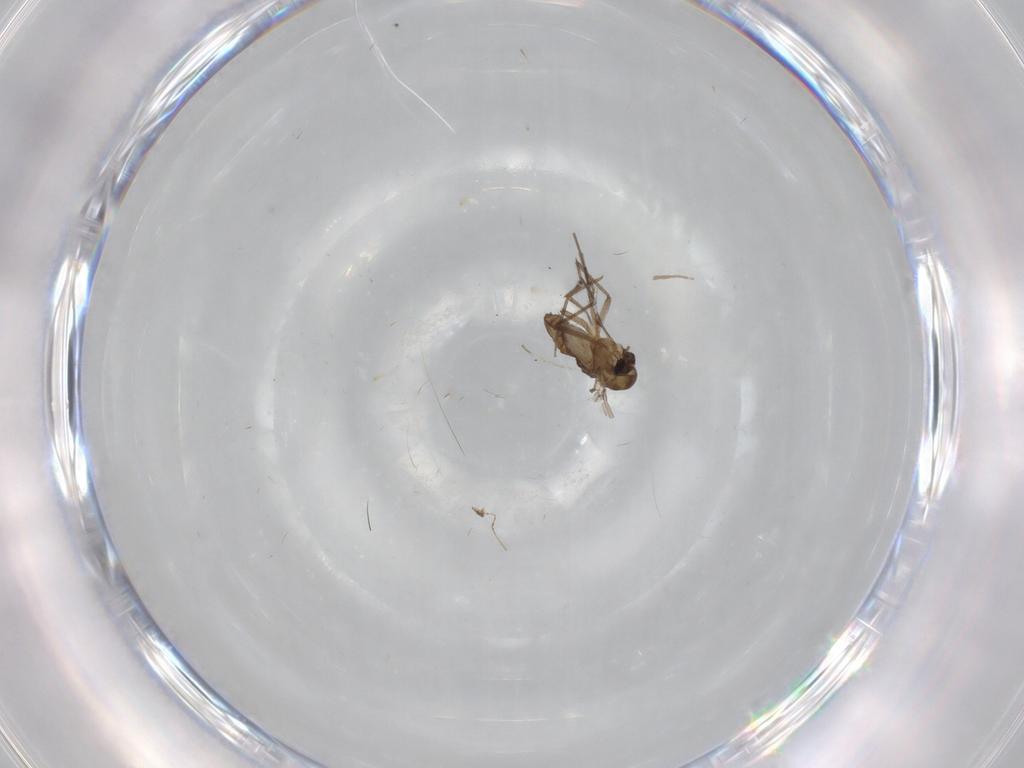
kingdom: Animalia
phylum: Arthropoda
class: Insecta
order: Diptera
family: Chironomidae
